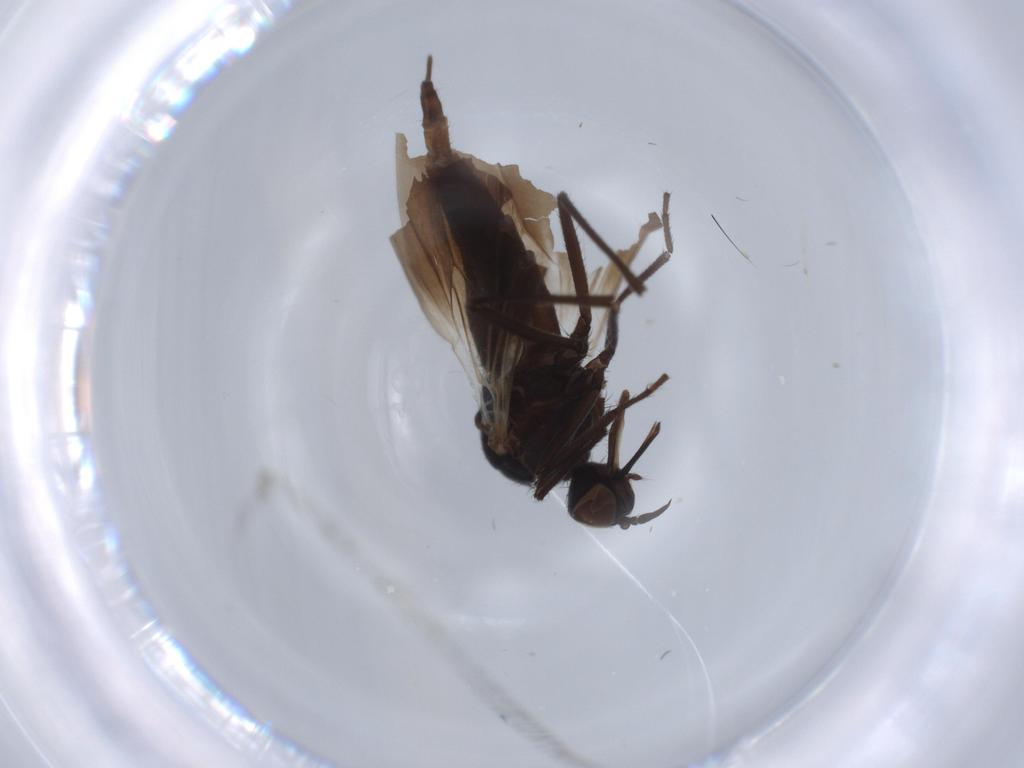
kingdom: Animalia
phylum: Arthropoda
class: Insecta
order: Diptera
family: Empididae
